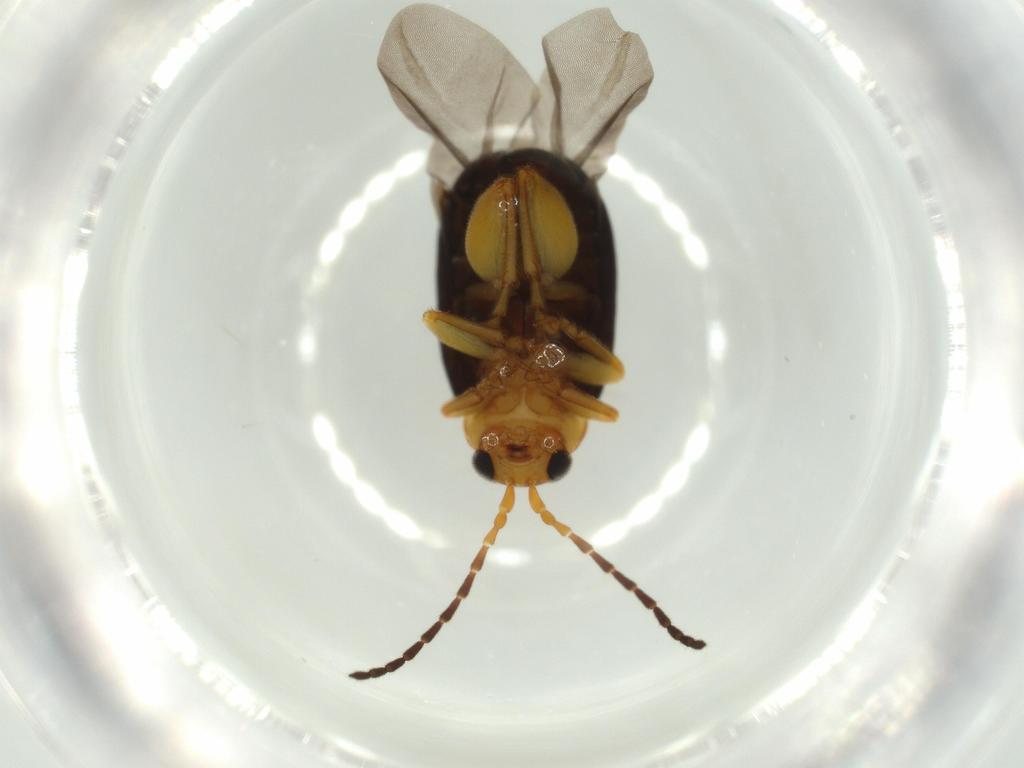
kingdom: Animalia
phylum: Arthropoda
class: Insecta
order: Coleoptera
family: Chrysomelidae
